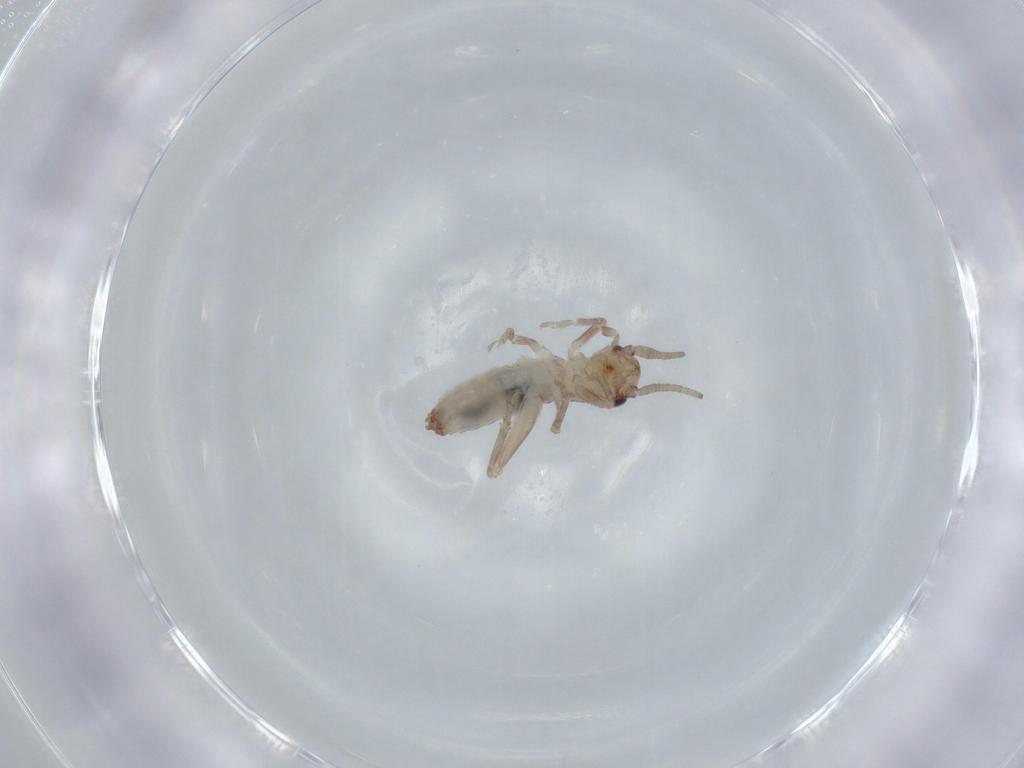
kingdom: Animalia
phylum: Arthropoda
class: Insecta
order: Orthoptera
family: Mogoplistidae
